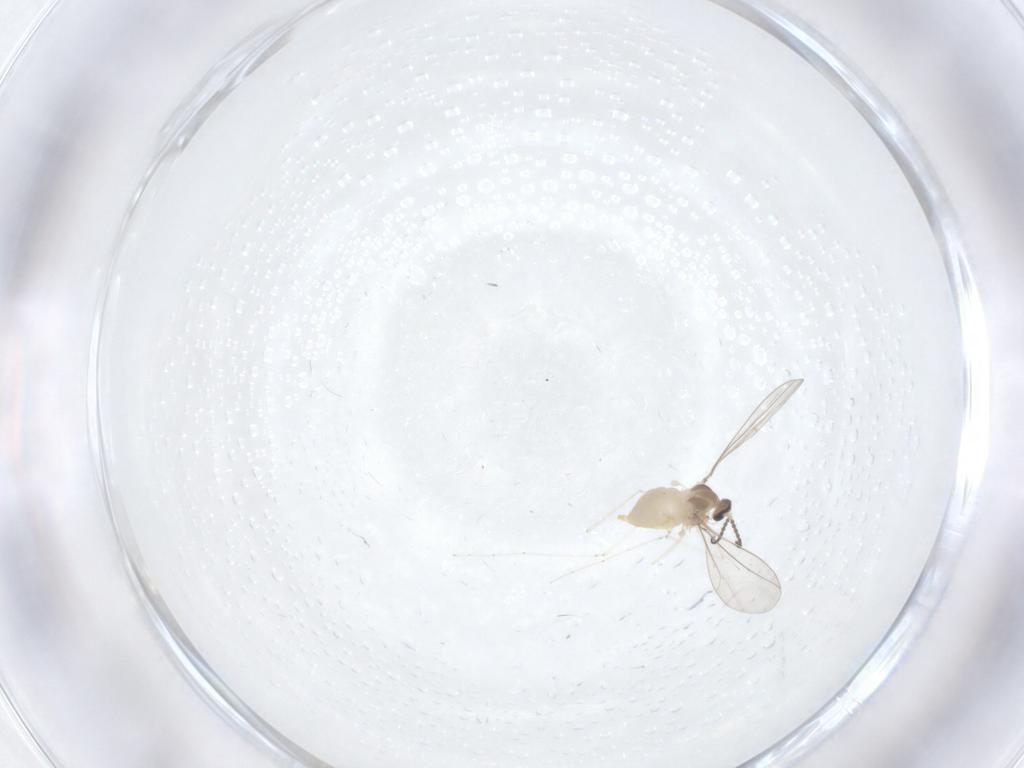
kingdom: Animalia
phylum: Arthropoda
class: Insecta
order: Diptera
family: Cecidomyiidae
